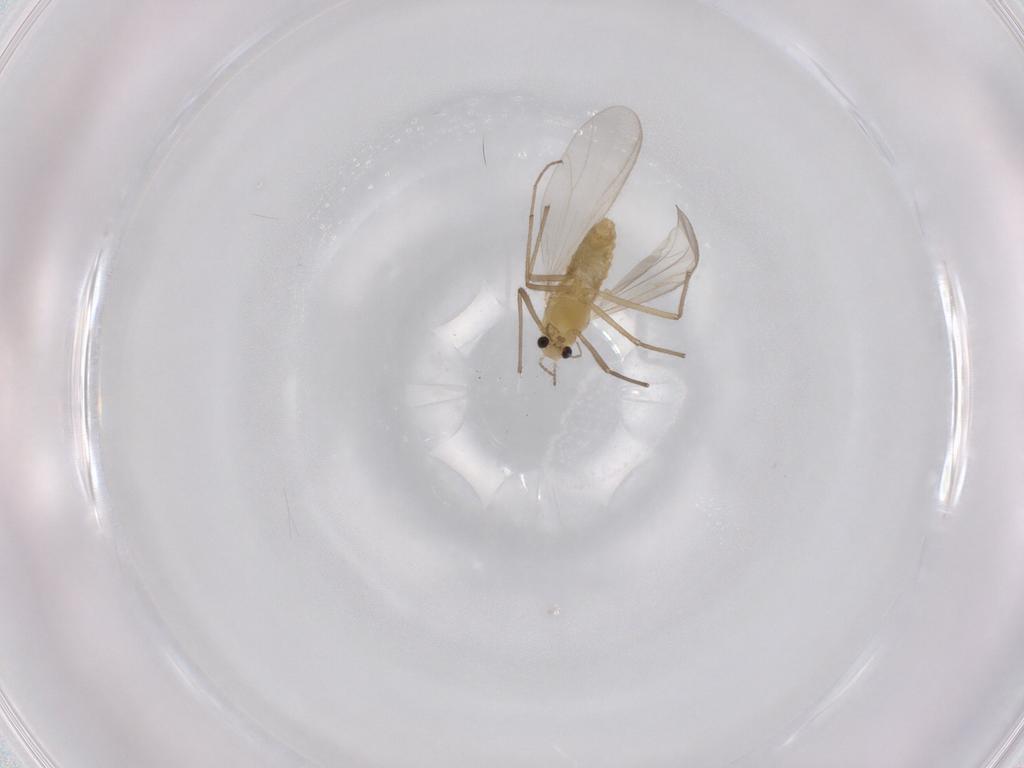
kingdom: Animalia
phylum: Arthropoda
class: Insecta
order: Diptera
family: Chironomidae
